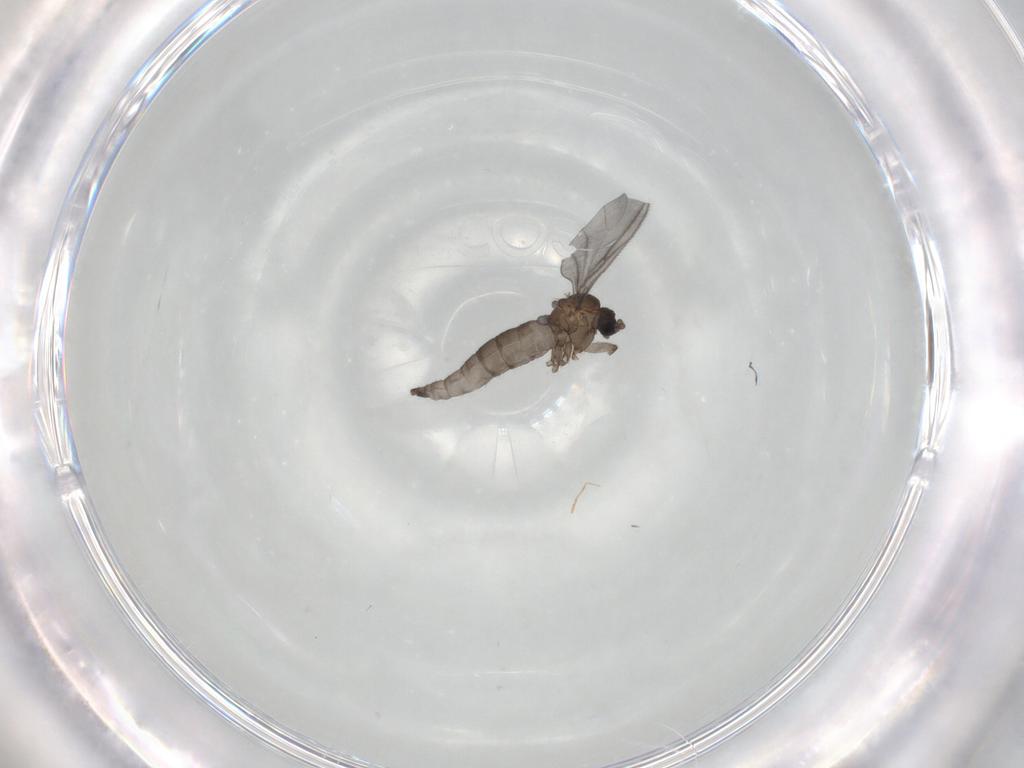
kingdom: Animalia
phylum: Arthropoda
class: Insecta
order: Diptera
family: Sciaridae
